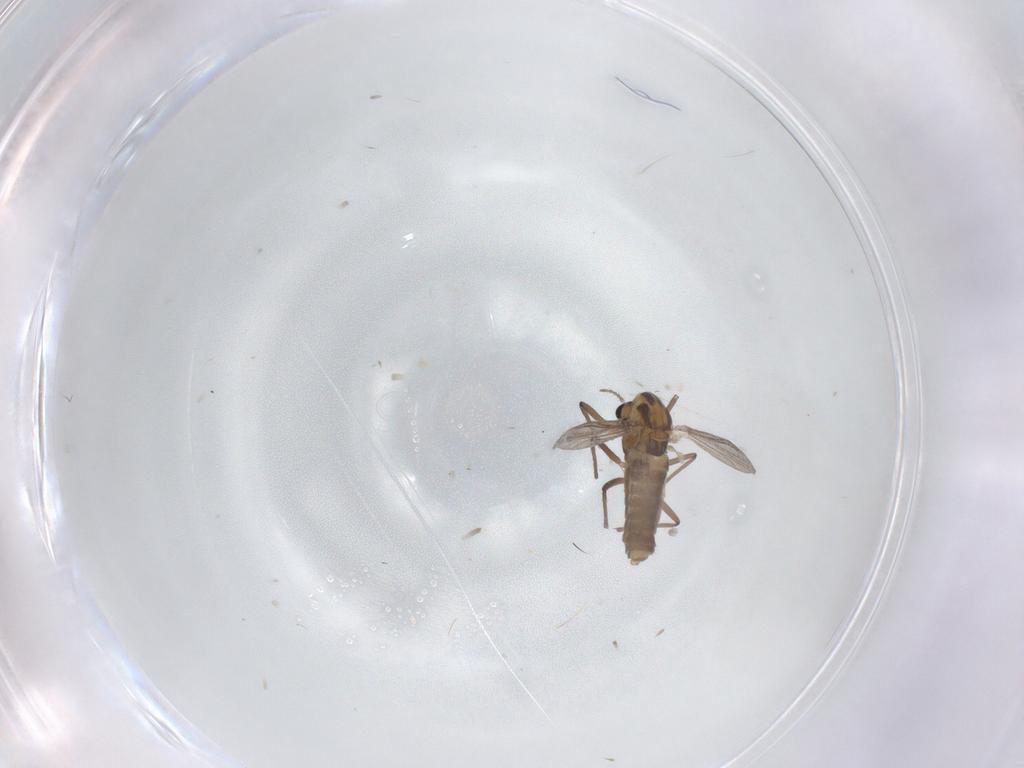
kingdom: Animalia
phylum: Arthropoda
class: Insecta
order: Diptera
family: Chironomidae
